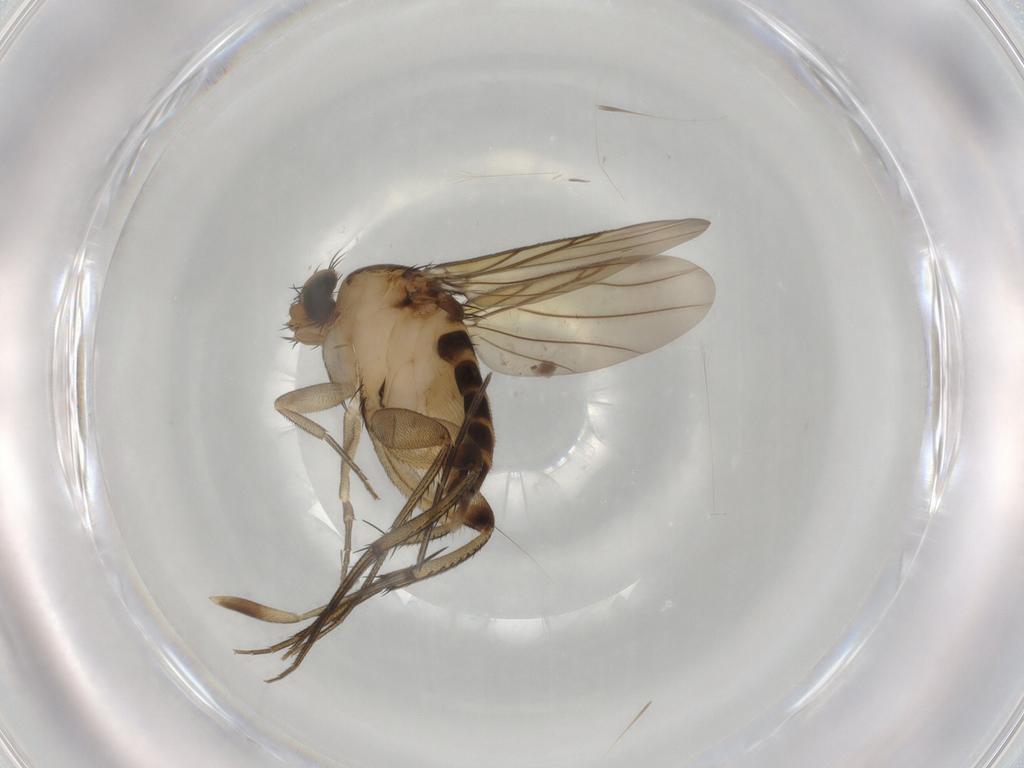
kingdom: Animalia
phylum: Arthropoda
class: Insecta
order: Diptera
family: Phoridae
